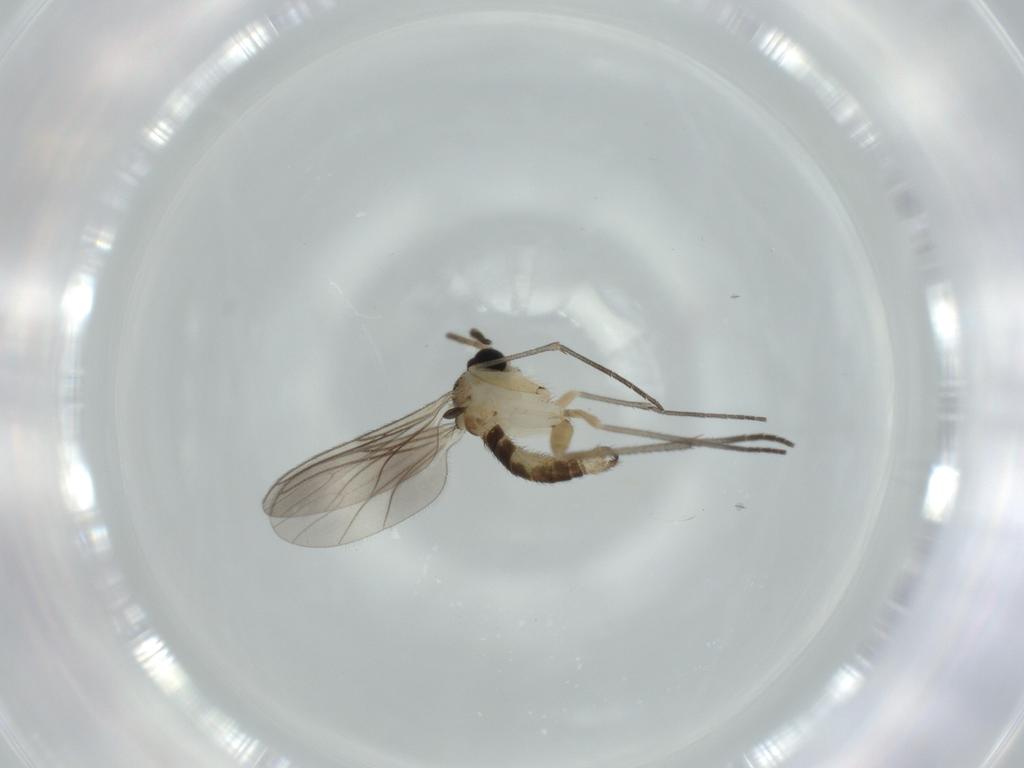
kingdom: Animalia
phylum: Arthropoda
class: Insecta
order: Diptera
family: Sciaridae
